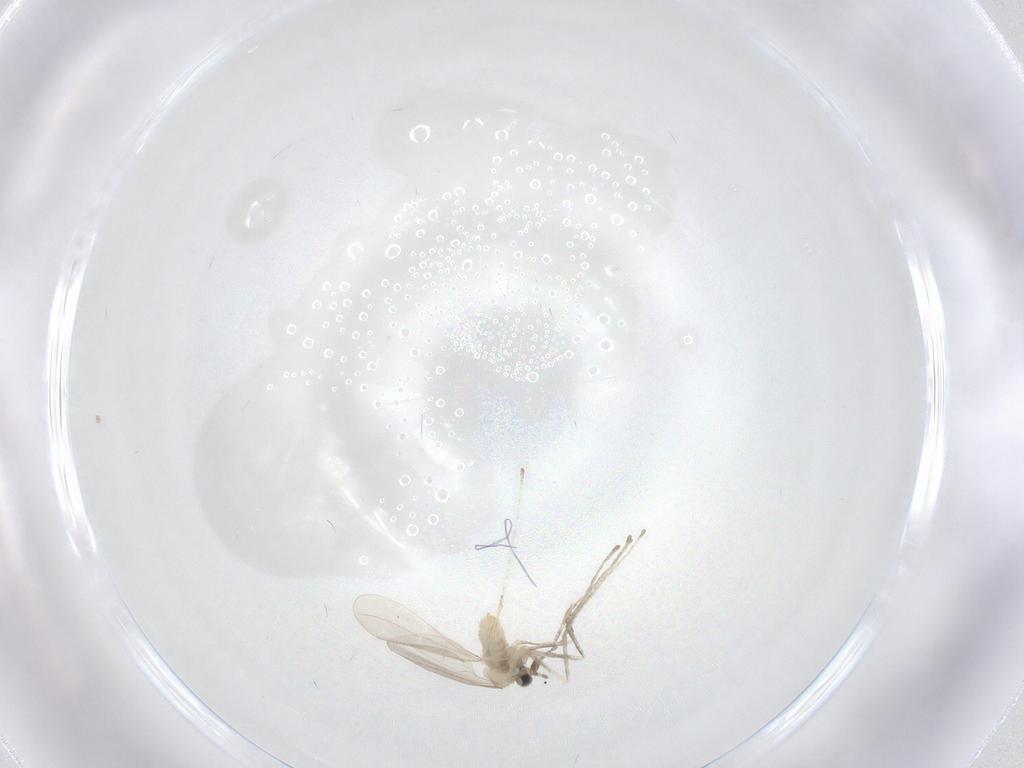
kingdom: Animalia
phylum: Arthropoda
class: Insecta
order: Diptera
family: Cecidomyiidae
